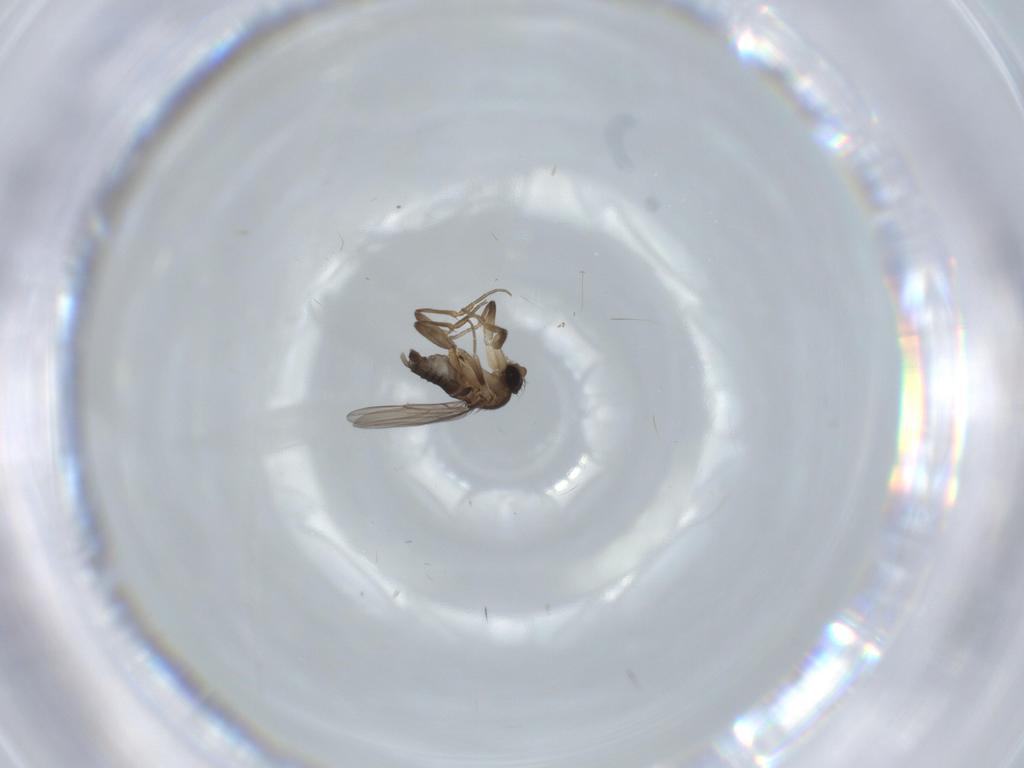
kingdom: Animalia
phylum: Arthropoda
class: Insecta
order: Diptera
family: Phoridae
